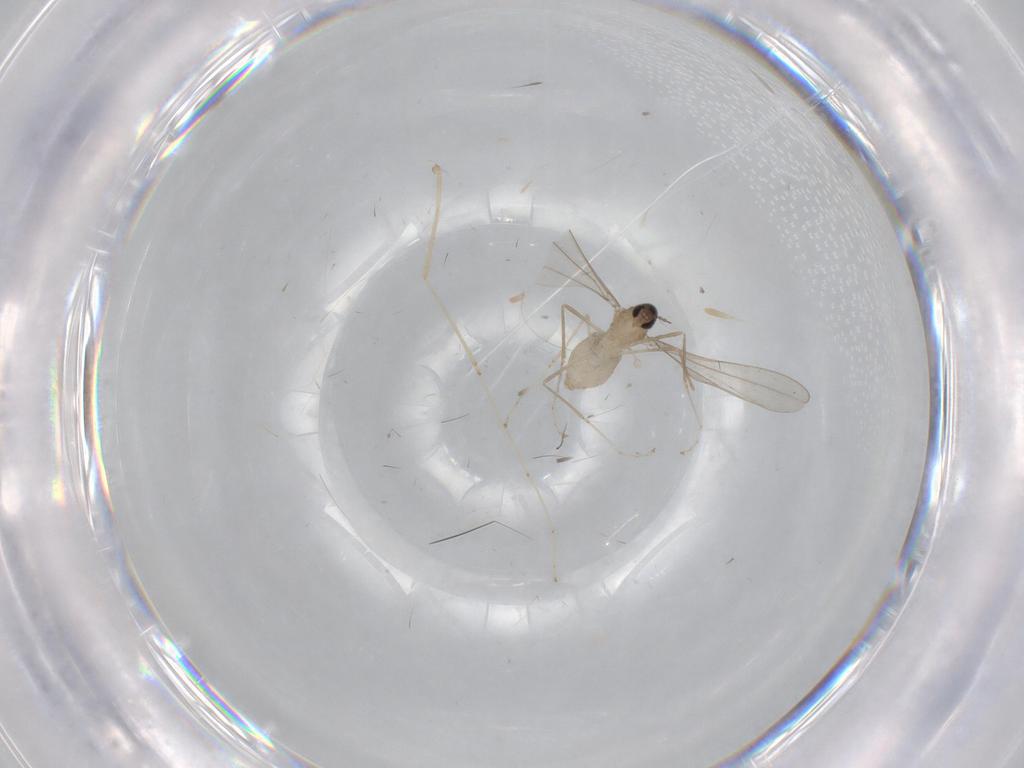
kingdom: Animalia
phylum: Arthropoda
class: Insecta
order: Diptera
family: Cecidomyiidae
